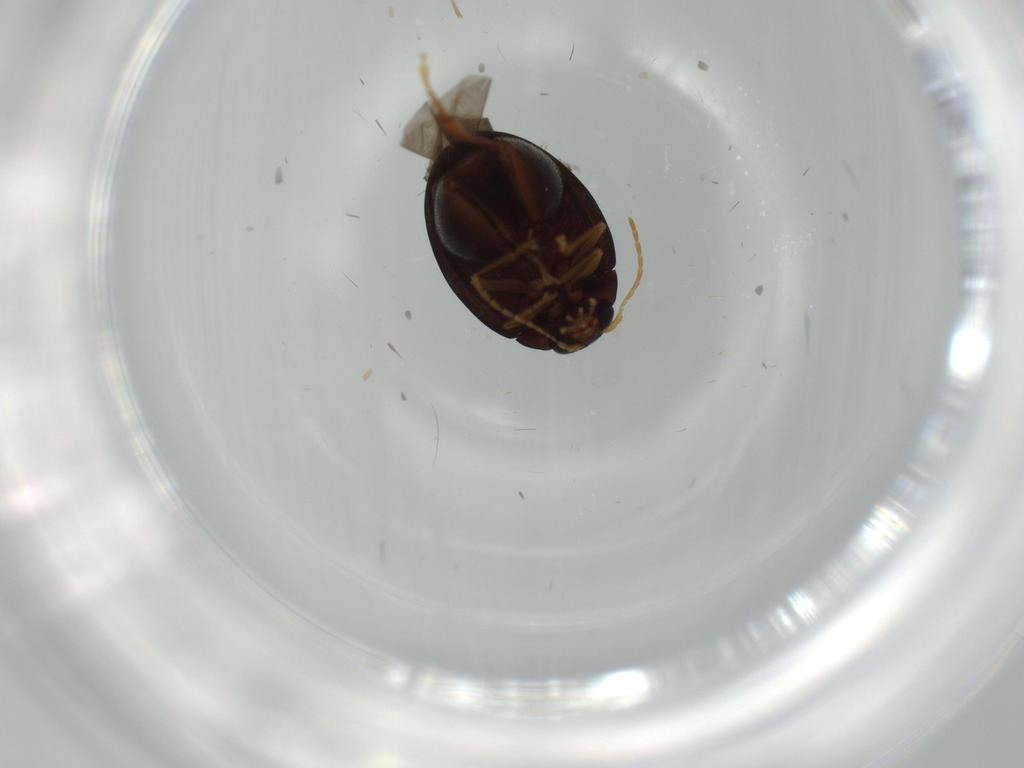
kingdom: Animalia
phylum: Arthropoda
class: Insecta
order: Coleoptera
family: Chrysomelidae
